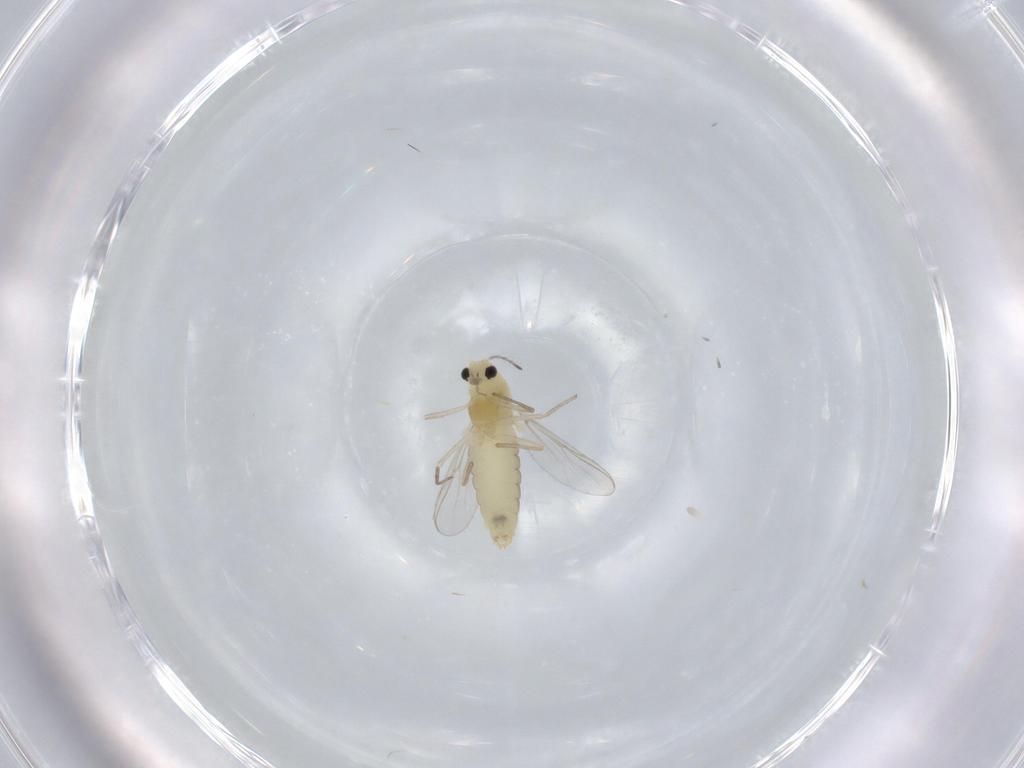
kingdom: Animalia
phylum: Arthropoda
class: Insecta
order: Diptera
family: Chironomidae
